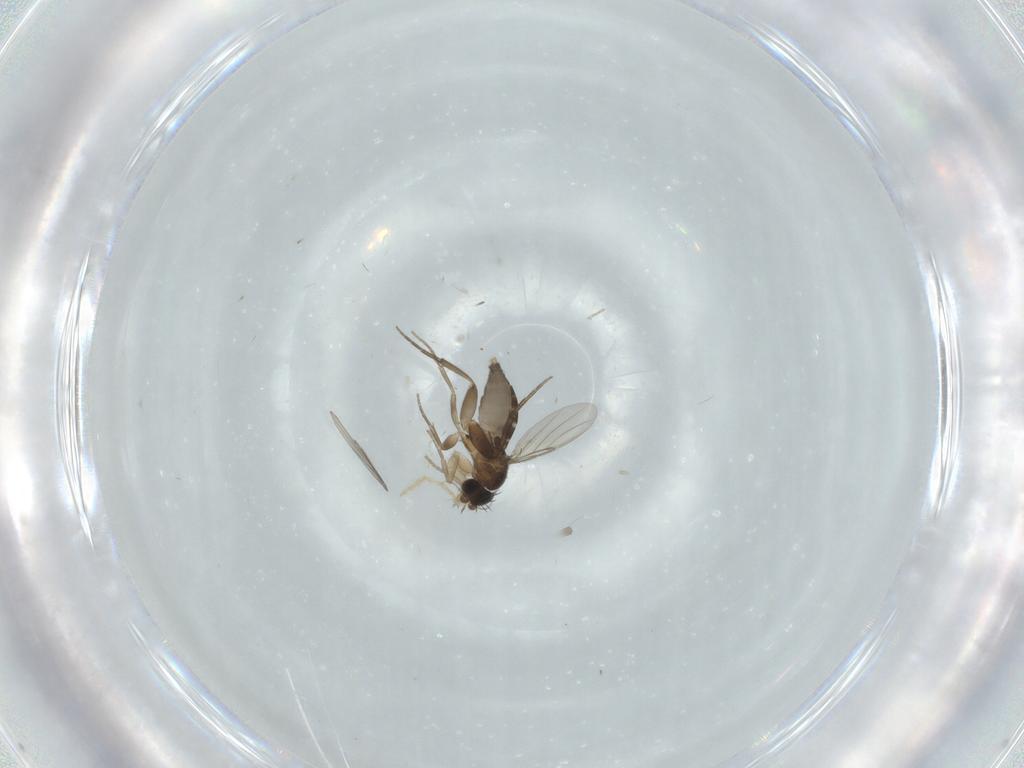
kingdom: Animalia
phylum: Arthropoda
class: Insecta
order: Diptera
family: Phoridae
